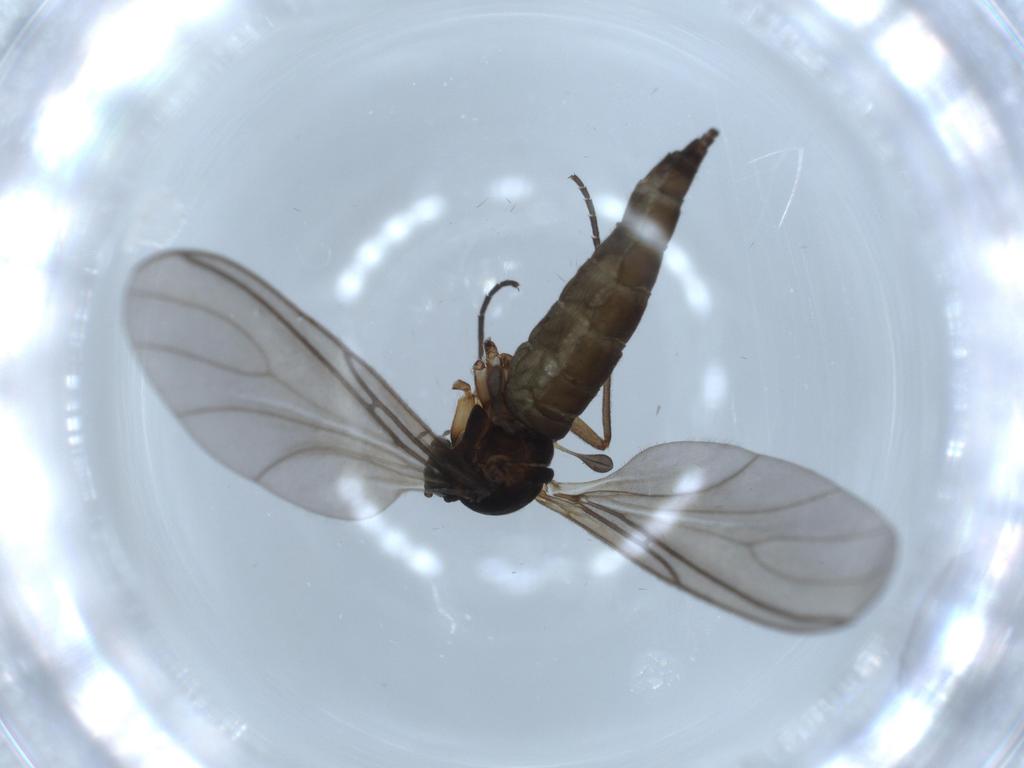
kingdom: Animalia
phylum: Arthropoda
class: Insecta
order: Diptera
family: Sciaridae
